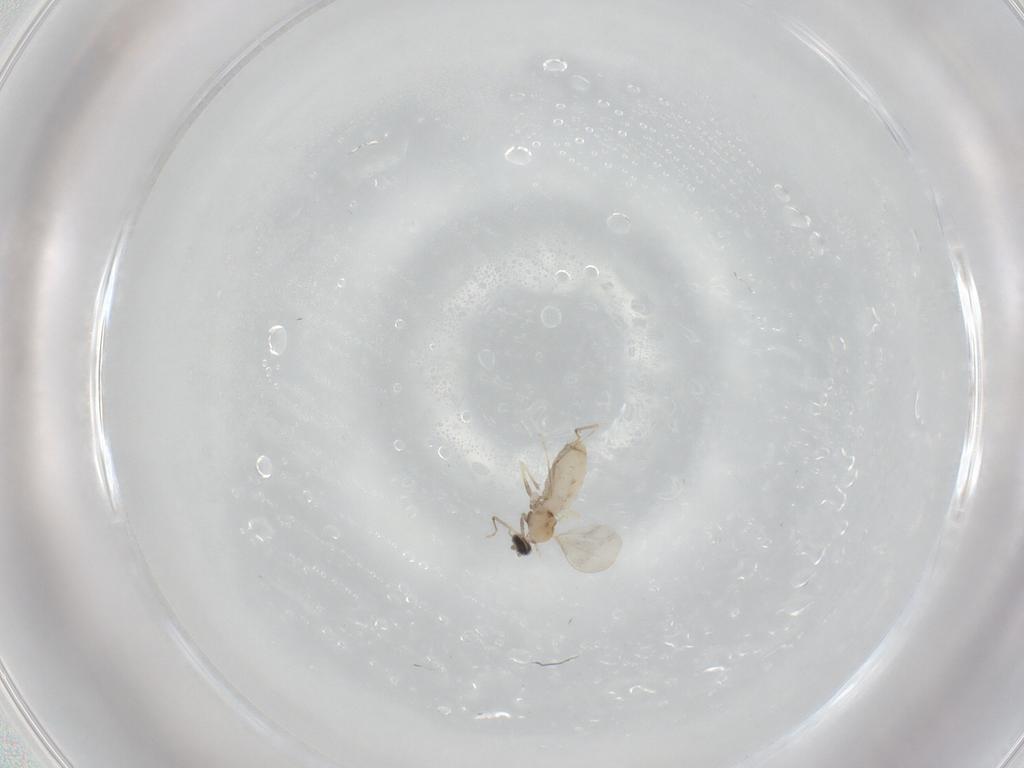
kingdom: Animalia
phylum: Arthropoda
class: Insecta
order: Diptera
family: Cecidomyiidae
